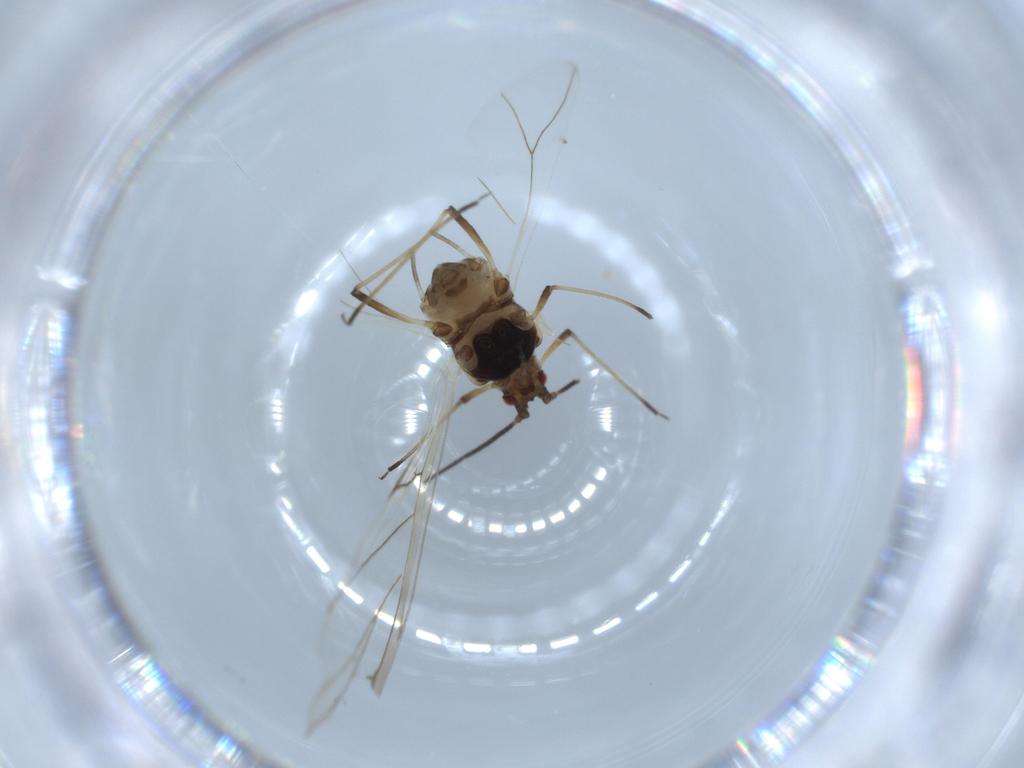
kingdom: Animalia
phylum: Arthropoda
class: Insecta
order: Hemiptera
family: Aphididae
